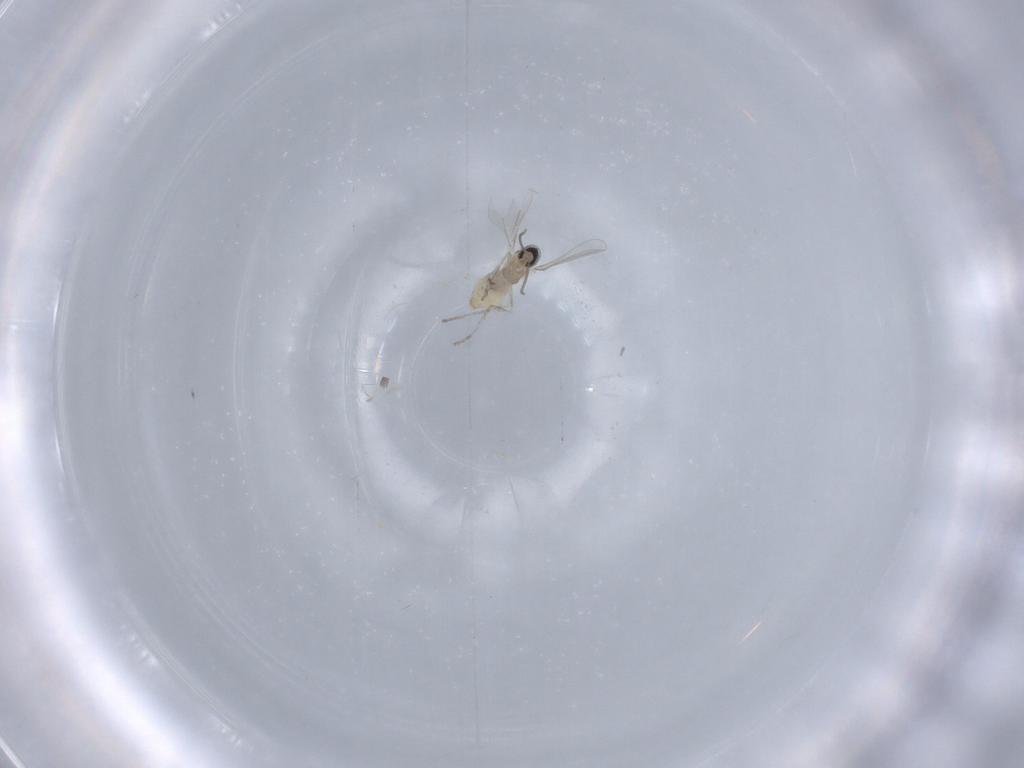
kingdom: Animalia
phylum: Arthropoda
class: Insecta
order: Diptera
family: Cecidomyiidae
